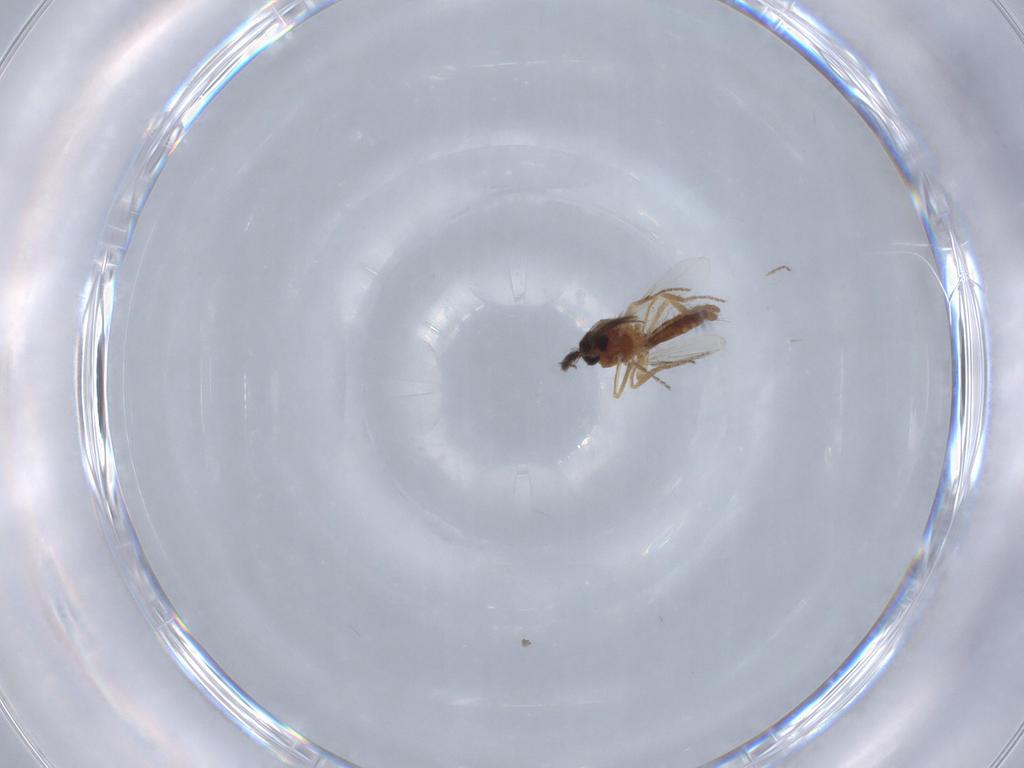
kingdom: Animalia
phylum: Arthropoda
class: Insecta
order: Diptera
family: Ceratopogonidae
